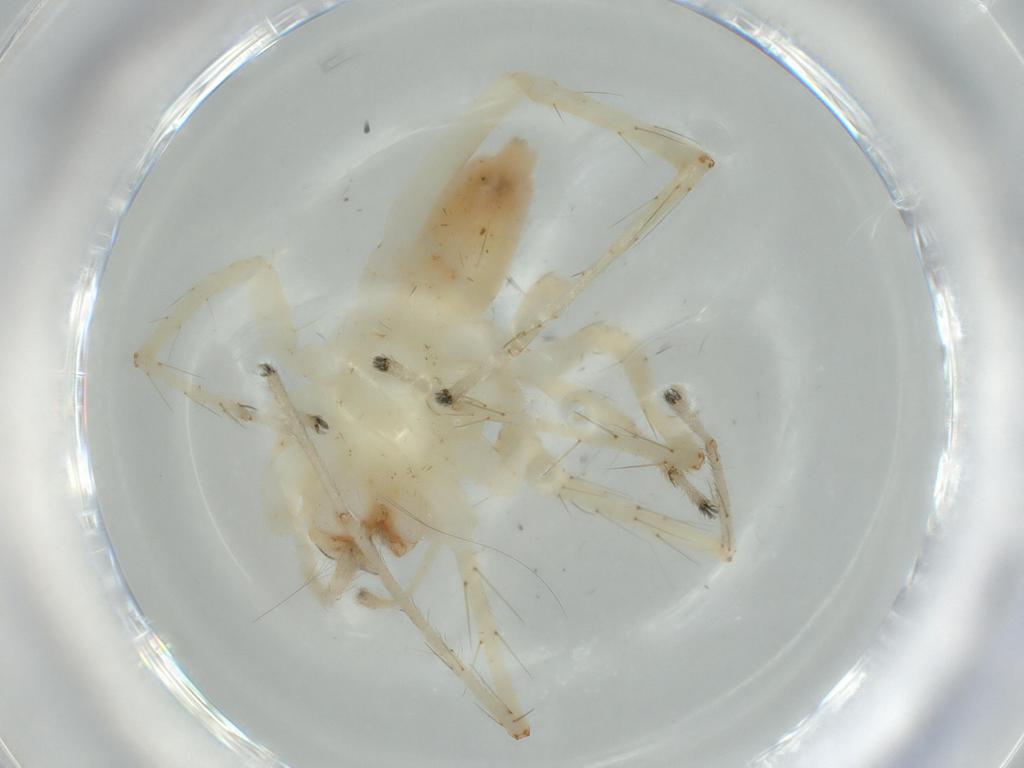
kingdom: Animalia
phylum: Arthropoda
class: Arachnida
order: Araneae
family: Anyphaenidae
